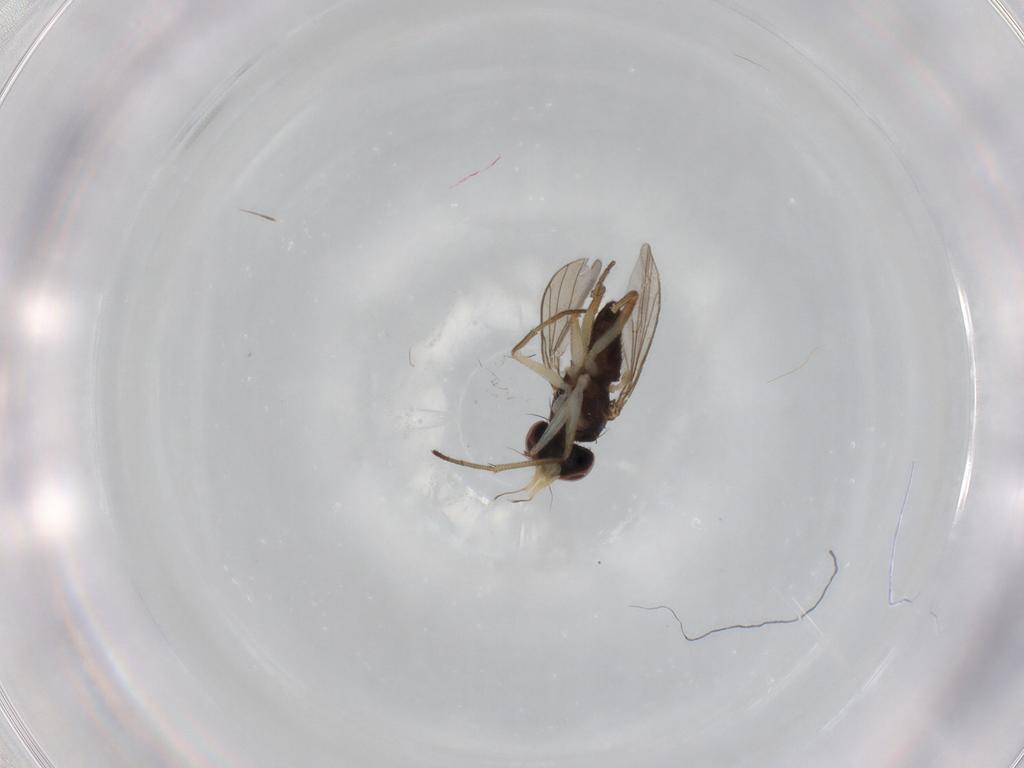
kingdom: Animalia
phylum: Arthropoda
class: Insecta
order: Diptera
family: Dolichopodidae
